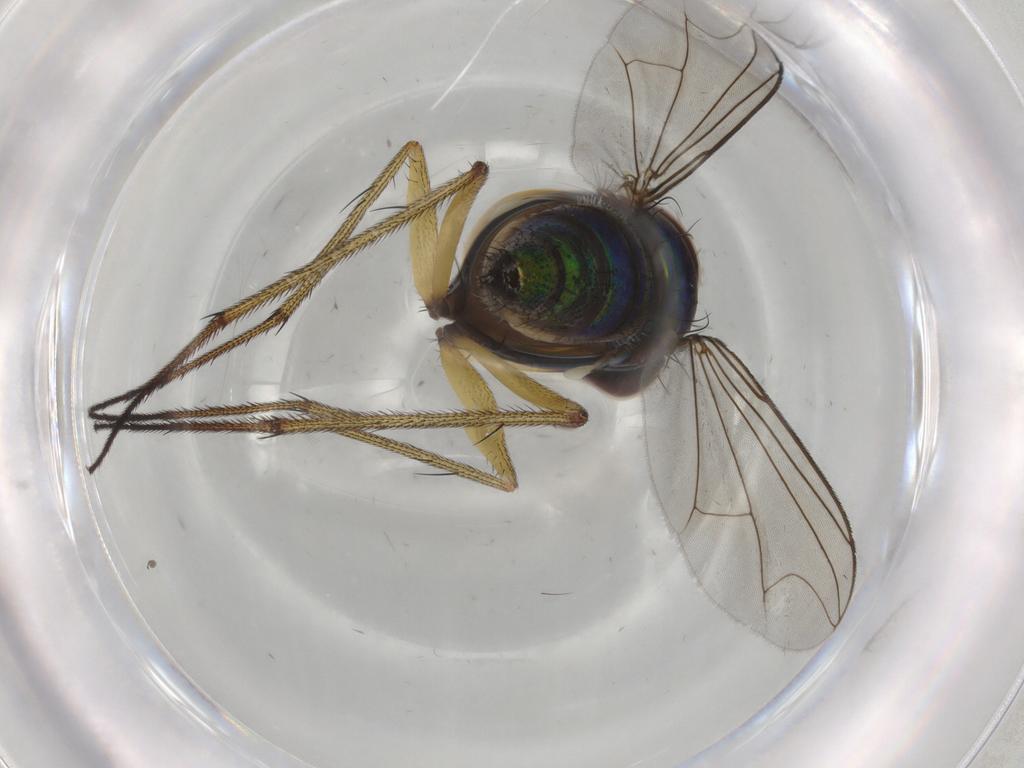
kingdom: Animalia
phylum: Arthropoda
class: Insecta
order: Diptera
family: Dolichopodidae
